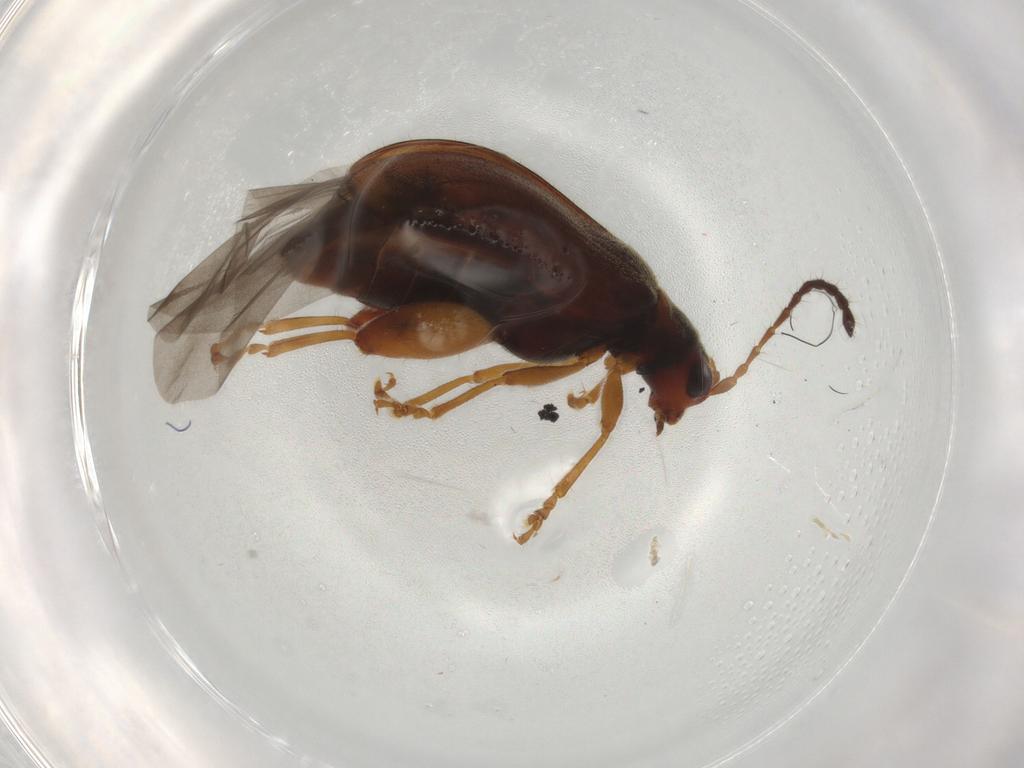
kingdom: Animalia
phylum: Arthropoda
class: Insecta
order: Coleoptera
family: Chrysomelidae
